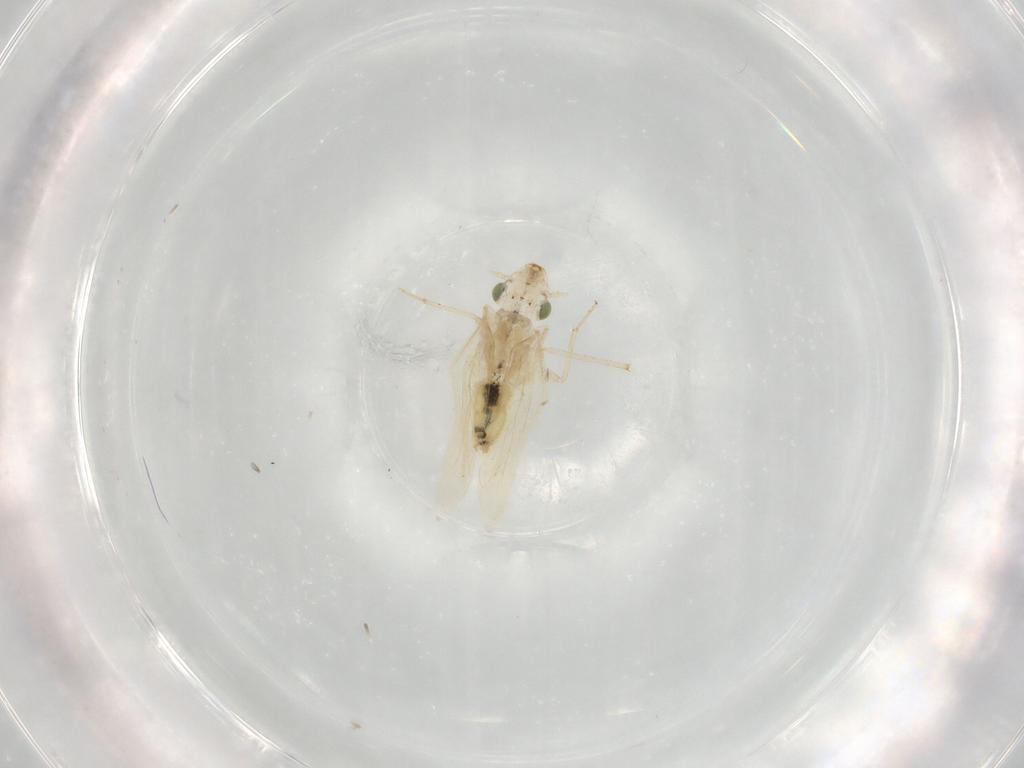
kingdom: Animalia
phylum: Arthropoda
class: Insecta
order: Psocodea
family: Lepidopsocidae
